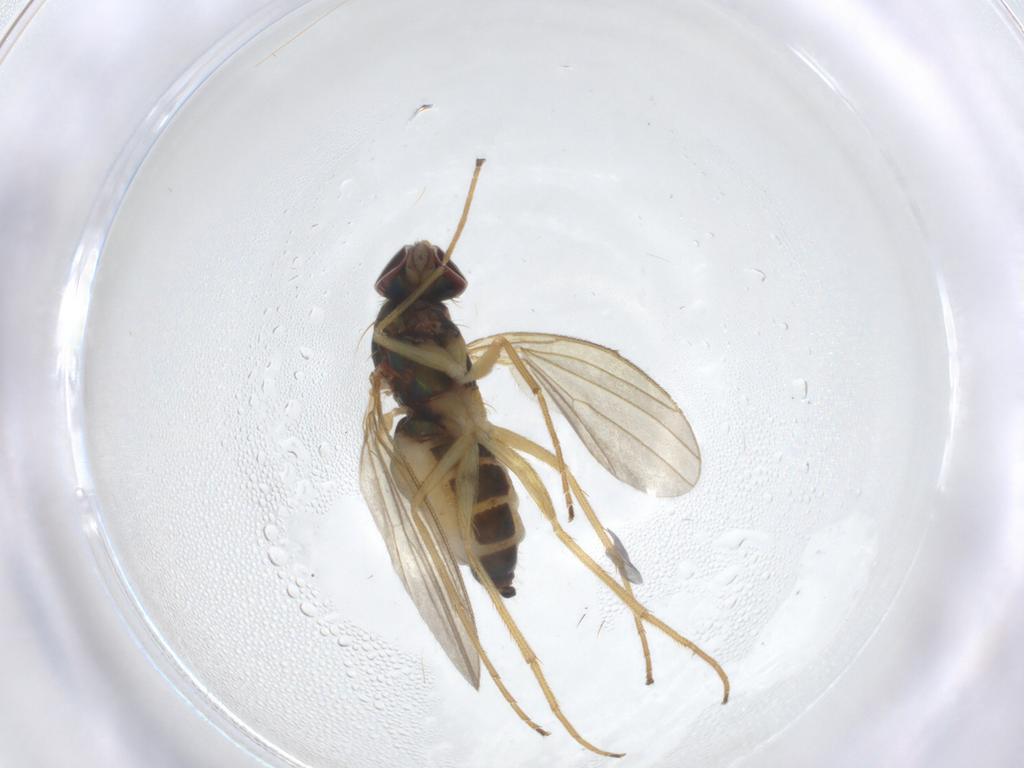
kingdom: Animalia
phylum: Arthropoda
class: Insecta
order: Diptera
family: Dolichopodidae
